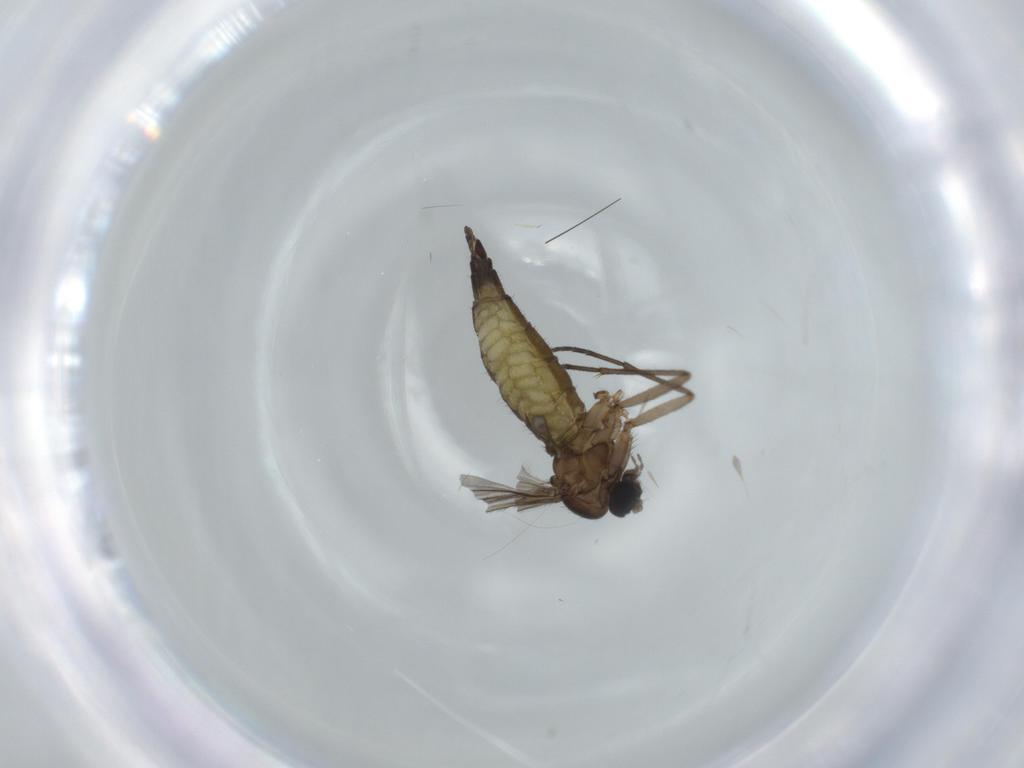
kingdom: Animalia
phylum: Arthropoda
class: Insecta
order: Diptera
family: Sciaridae
